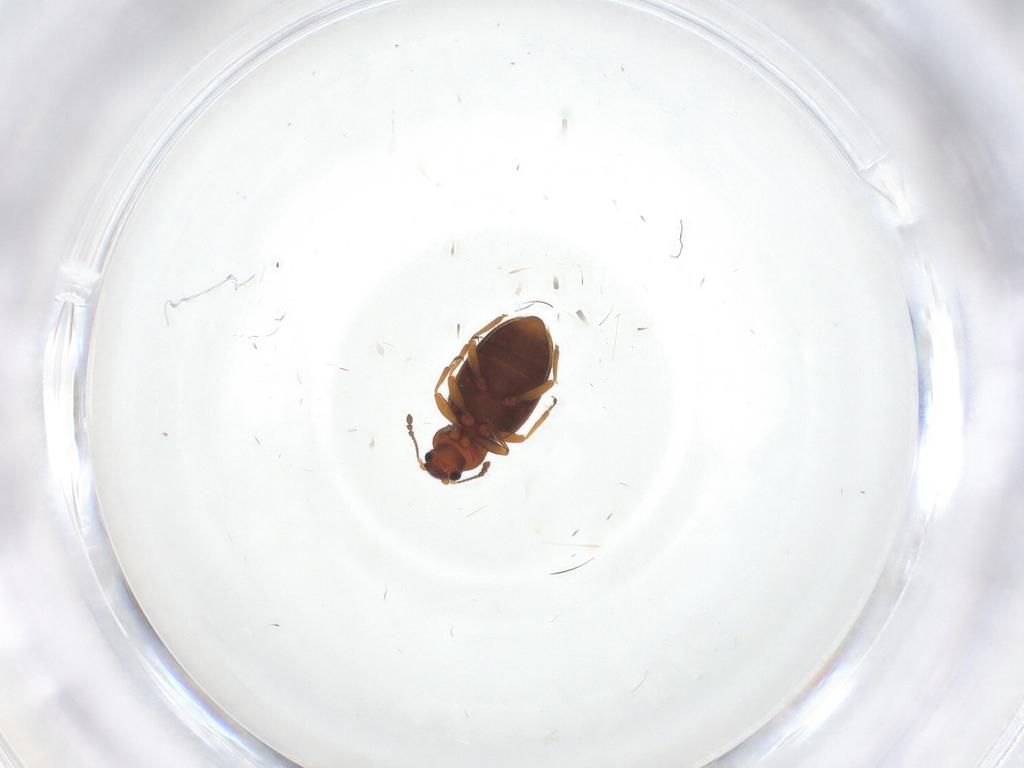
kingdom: Animalia
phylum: Arthropoda
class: Insecta
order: Coleoptera
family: Latridiidae
